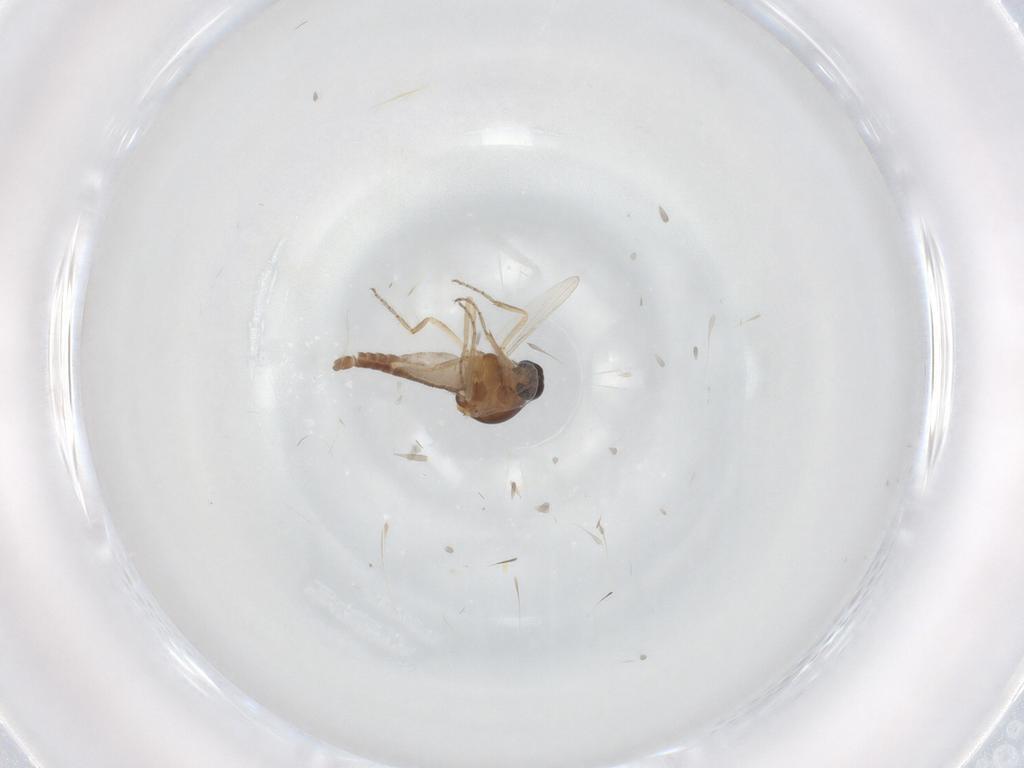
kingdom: Animalia
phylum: Arthropoda
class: Insecta
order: Diptera
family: Ceratopogonidae
